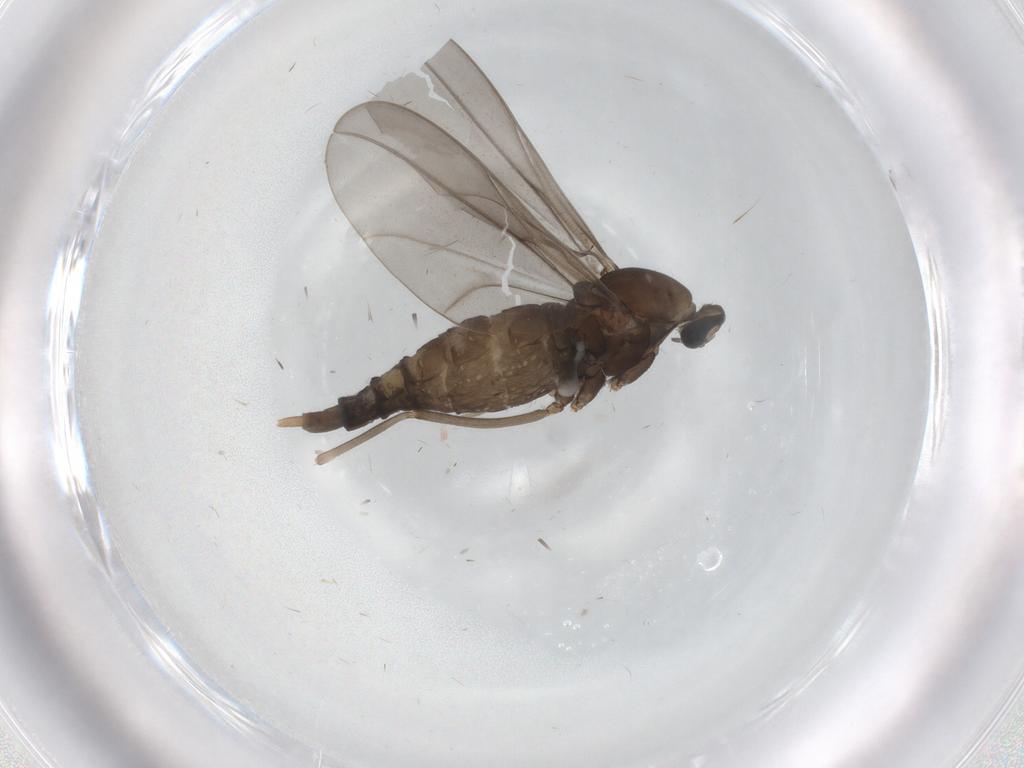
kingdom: Animalia
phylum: Arthropoda
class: Insecta
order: Diptera
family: Cecidomyiidae
